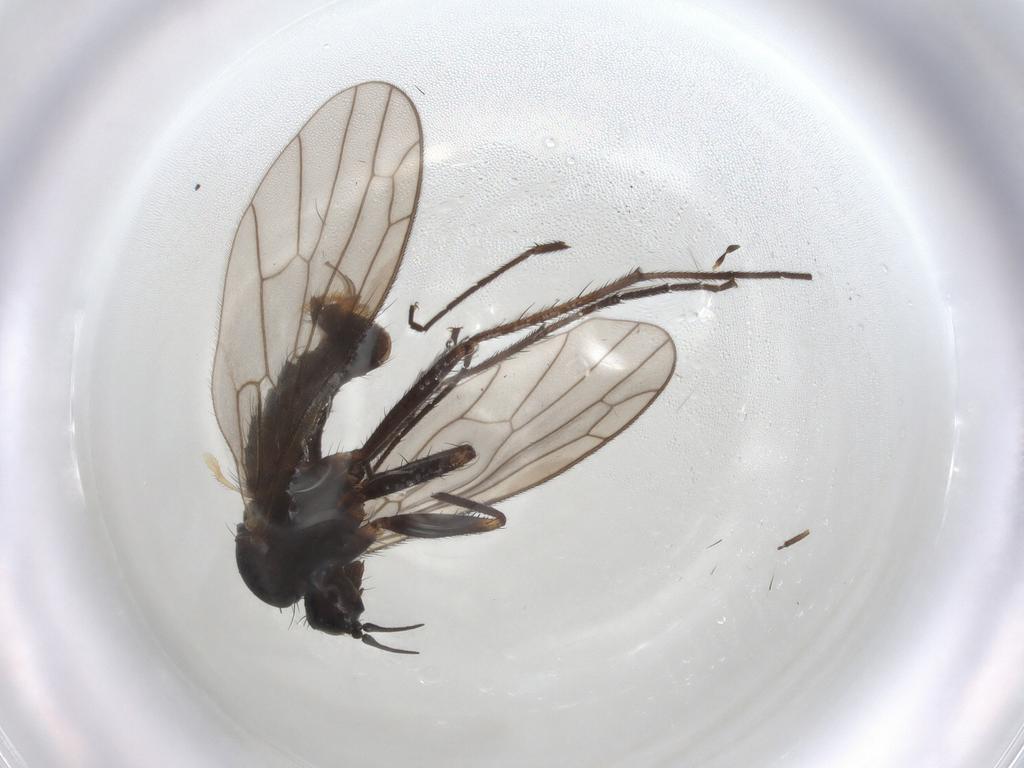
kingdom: Animalia
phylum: Arthropoda
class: Insecta
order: Diptera
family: Empididae
